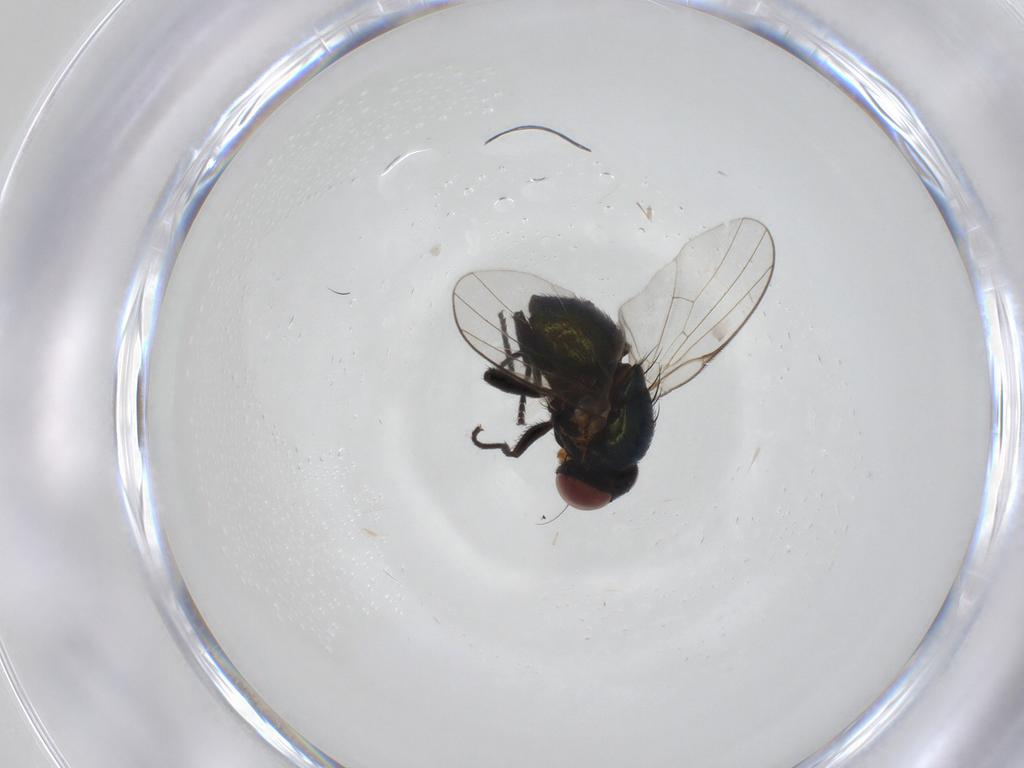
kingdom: Animalia
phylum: Arthropoda
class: Insecta
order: Diptera
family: Agromyzidae
